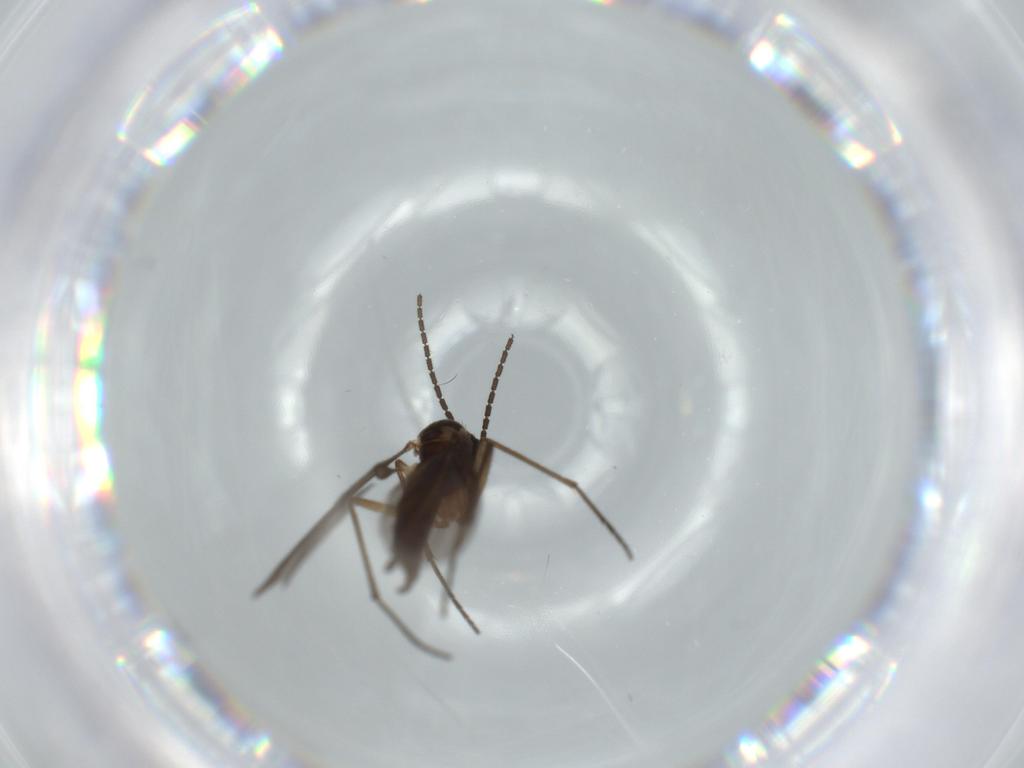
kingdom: Animalia
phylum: Arthropoda
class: Insecta
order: Diptera
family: Sciaridae
